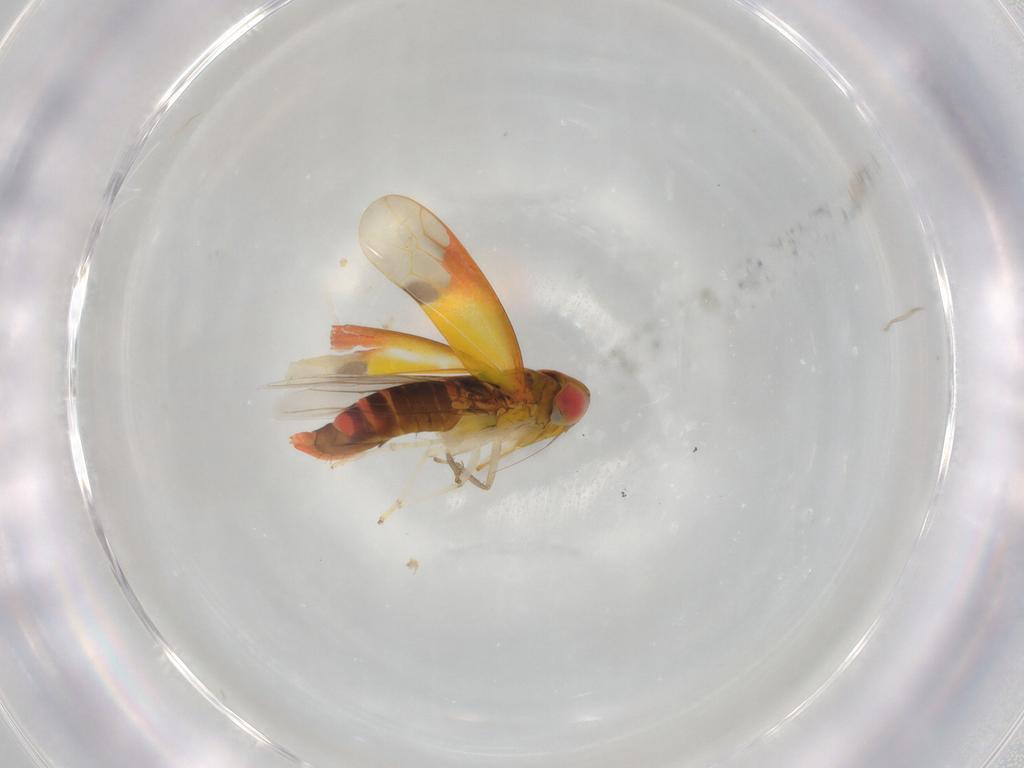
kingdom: Animalia
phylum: Arthropoda
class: Insecta
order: Hemiptera
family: Cicadellidae
